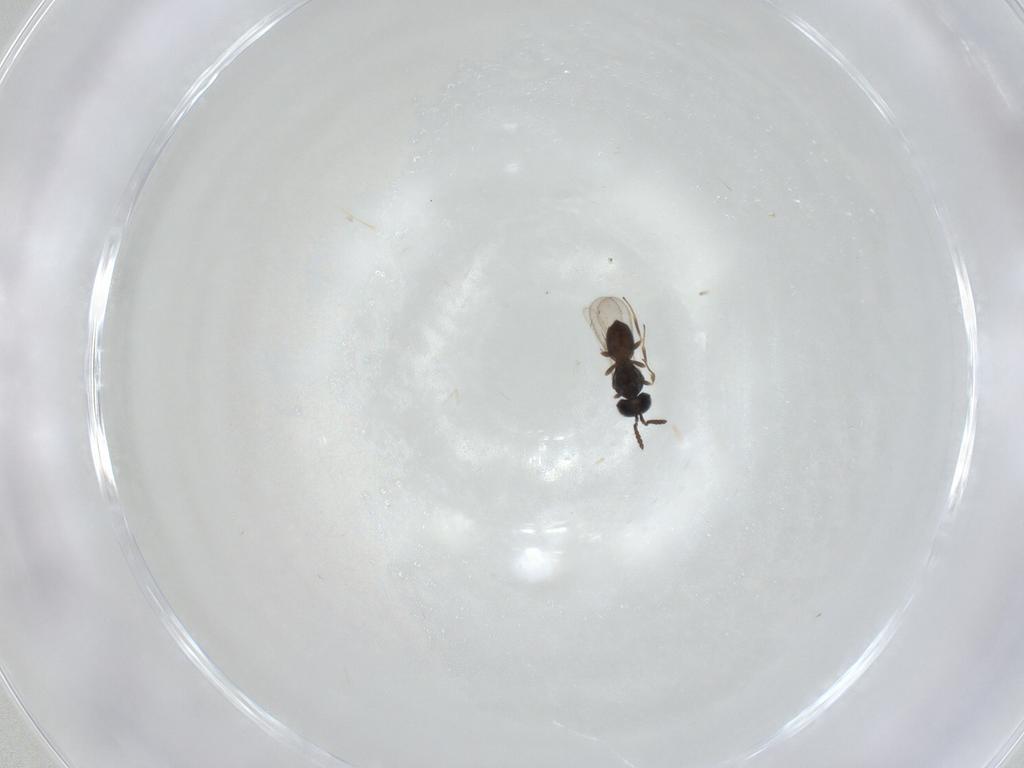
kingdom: Animalia
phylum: Arthropoda
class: Insecta
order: Hymenoptera
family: Scelionidae
